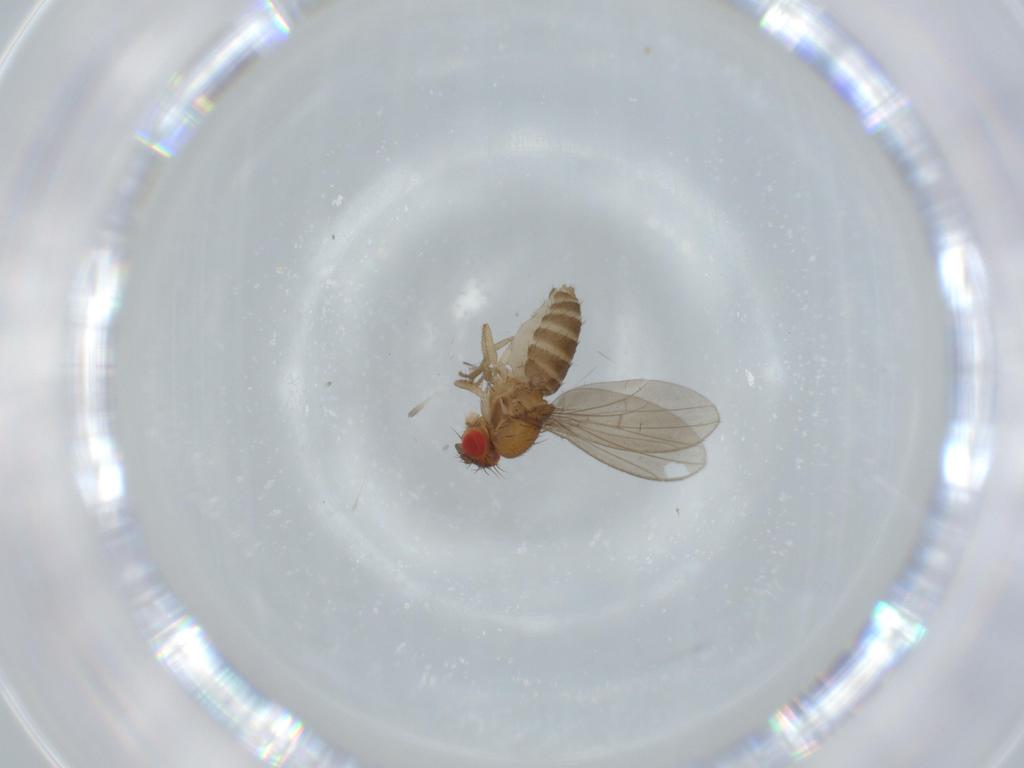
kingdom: Animalia
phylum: Arthropoda
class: Insecta
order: Diptera
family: Drosophilidae
